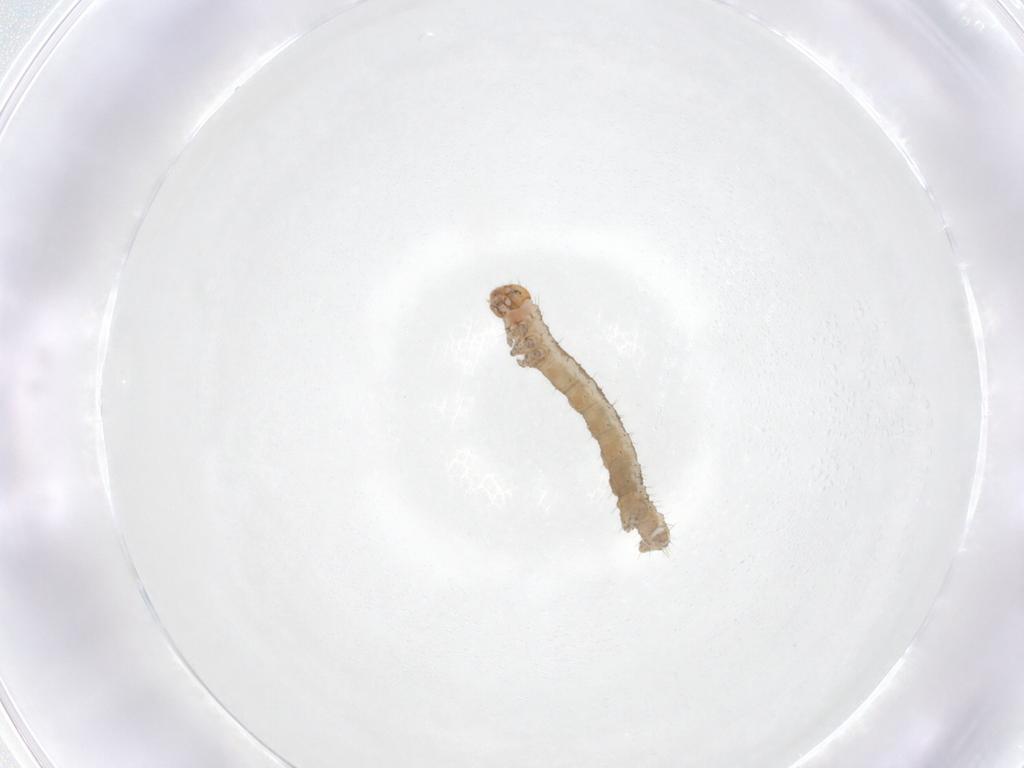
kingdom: Animalia
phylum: Arthropoda
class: Insecta
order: Lepidoptera
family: Geometridae
